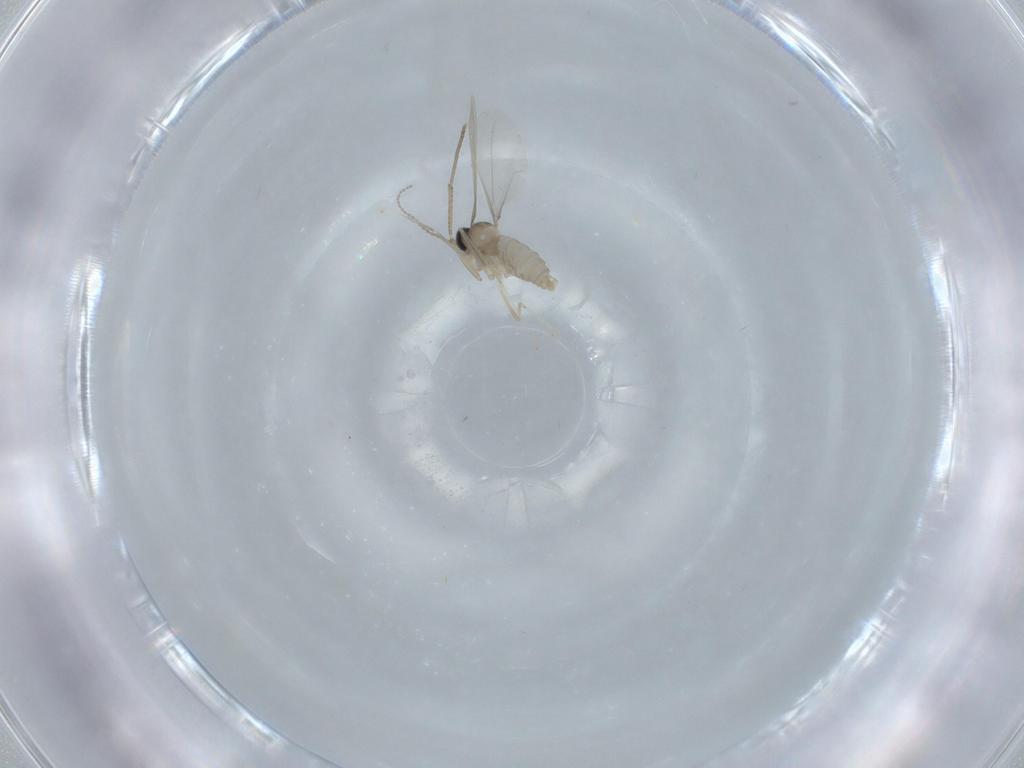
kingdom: Animalia
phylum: Arthropoda
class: Insecta
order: Diptera
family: Cecidomyiidae
